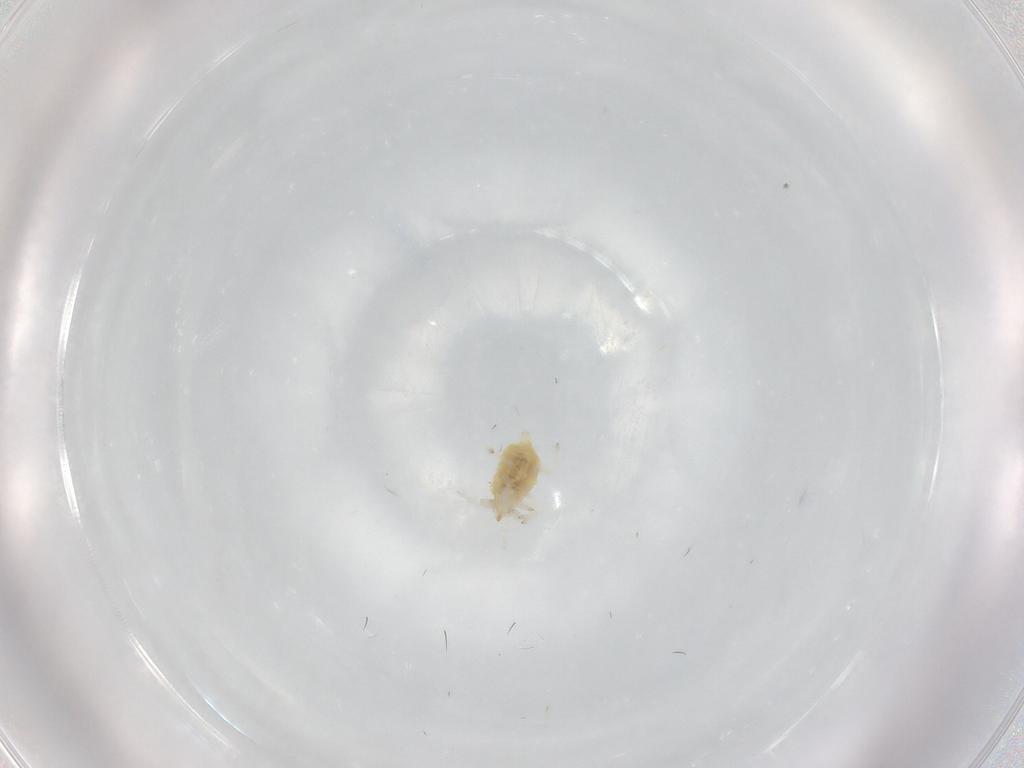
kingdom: Animalia
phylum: Arthropoda
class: Insecta
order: Neuroptera
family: Coniopterygidae
